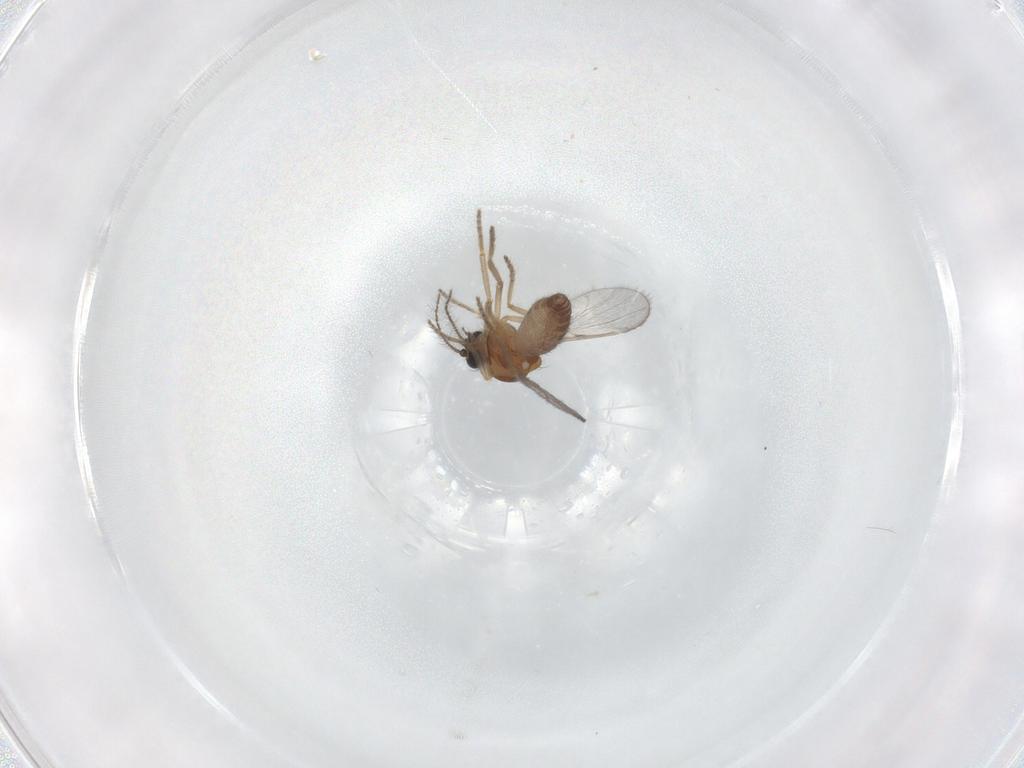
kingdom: Animalia
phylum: Arthropoda
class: Insecta
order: Diptera
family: Ceratopogonidae
